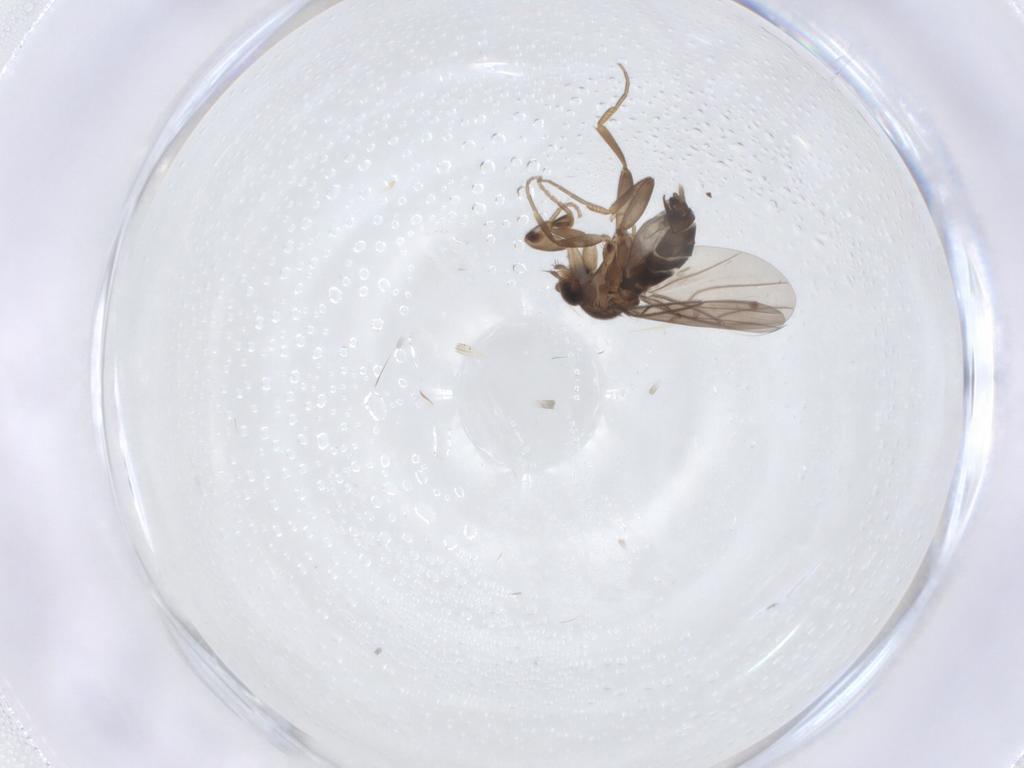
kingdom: Animalia
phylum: Arthropoda
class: Insecta
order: Diptera
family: Phoridae
